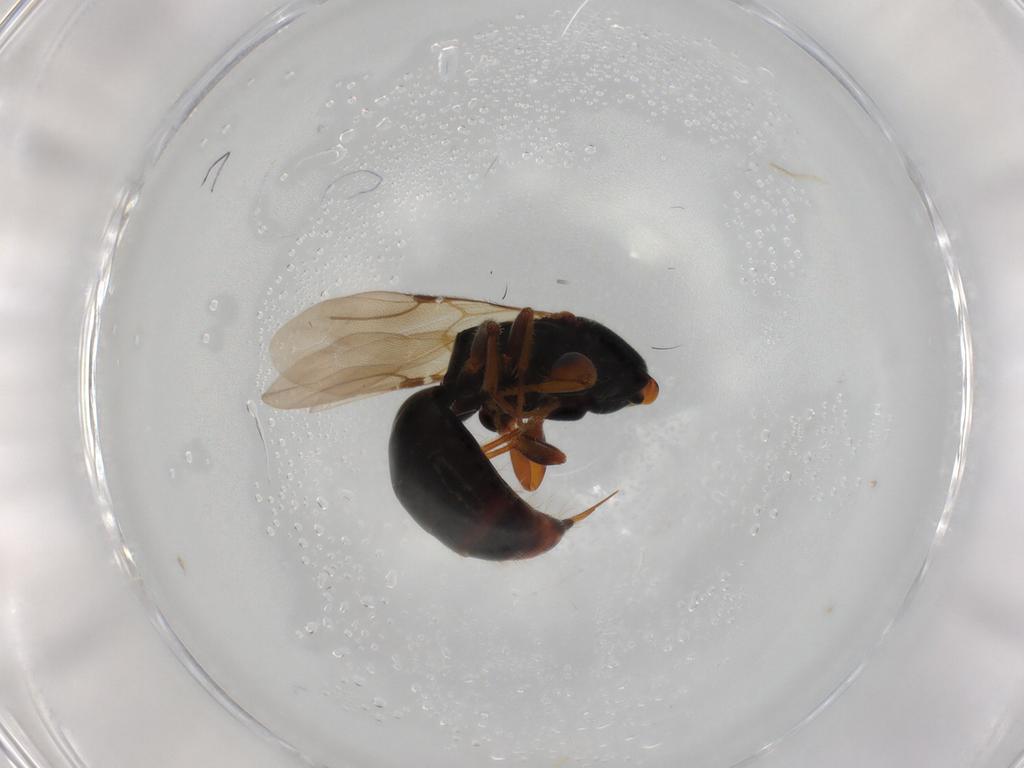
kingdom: Animalia
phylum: Arthropoda
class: Insecta
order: Hymenoptera
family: Bethylidae
